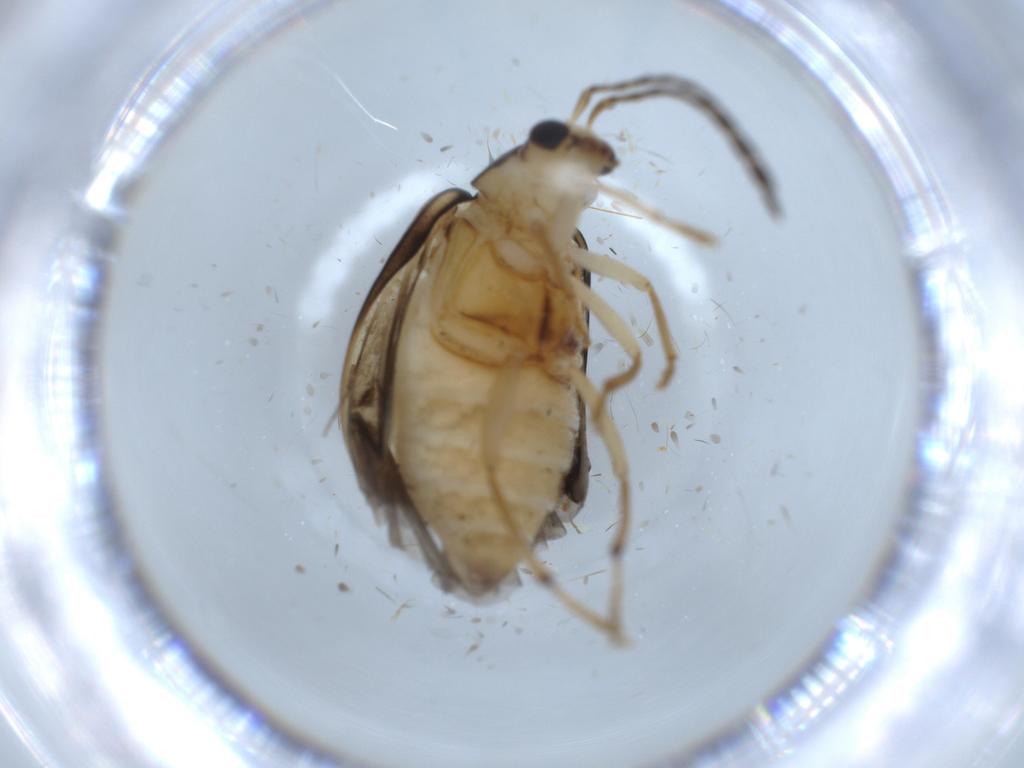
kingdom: Animalia
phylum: Arthropoda
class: Insecta
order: Coleoptera
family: Chrysomelidae
